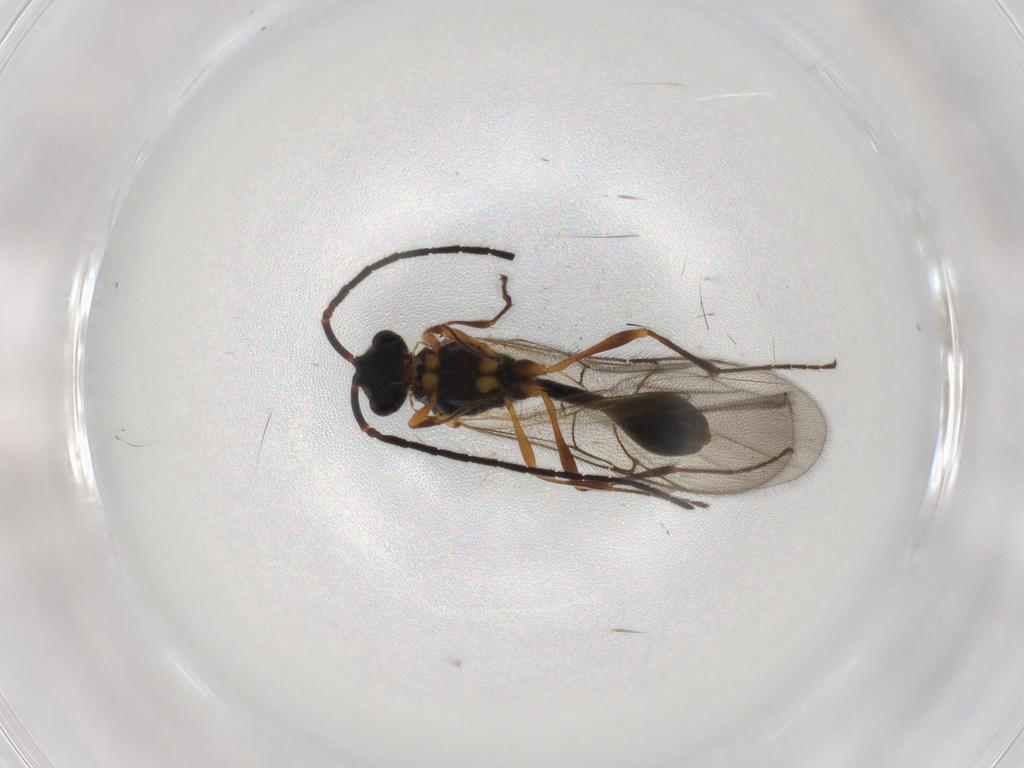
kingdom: Animalia
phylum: Arthropoda
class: Insecta
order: Hymenoptera
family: Diapriidae
